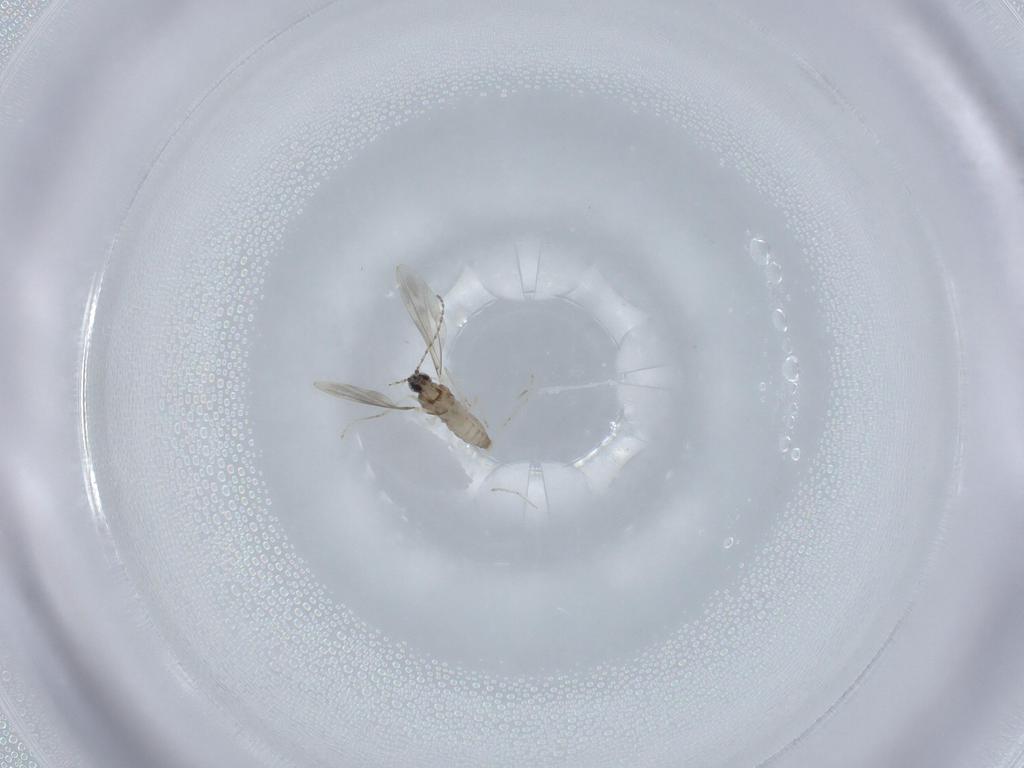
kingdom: Animalia
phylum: Arthropoda
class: Insecta
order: Diptera
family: Cecidomyiidae
